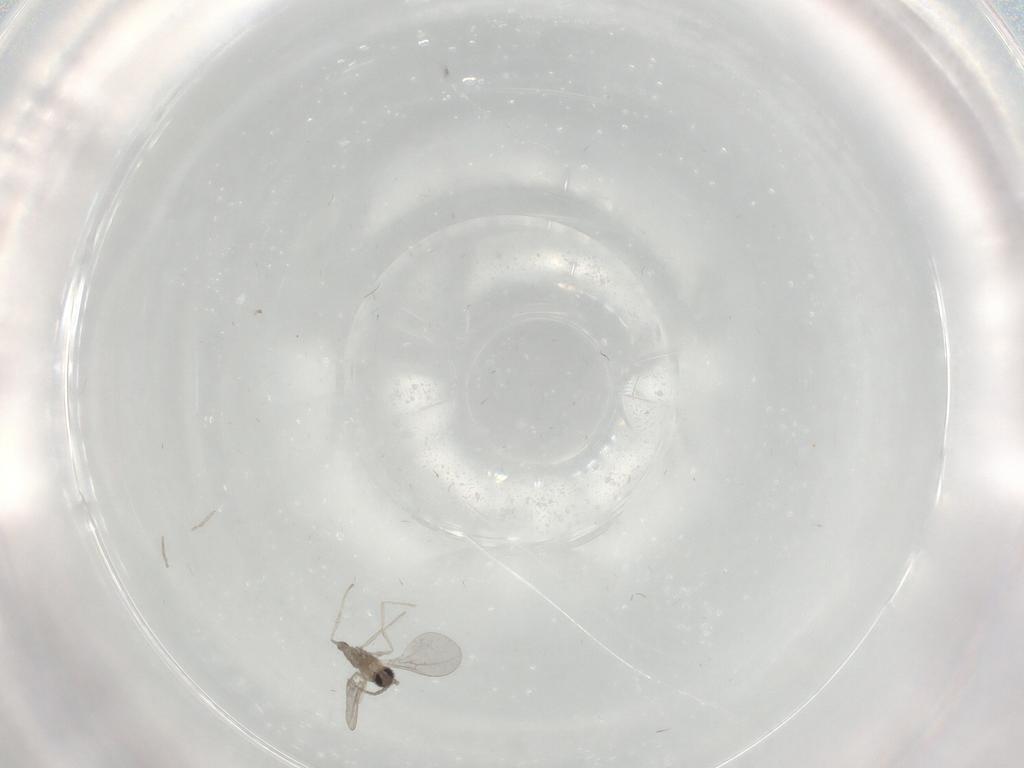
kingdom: Animalia
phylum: Arthropoda
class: Insecta
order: Diptera
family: Cecidomyiidae
